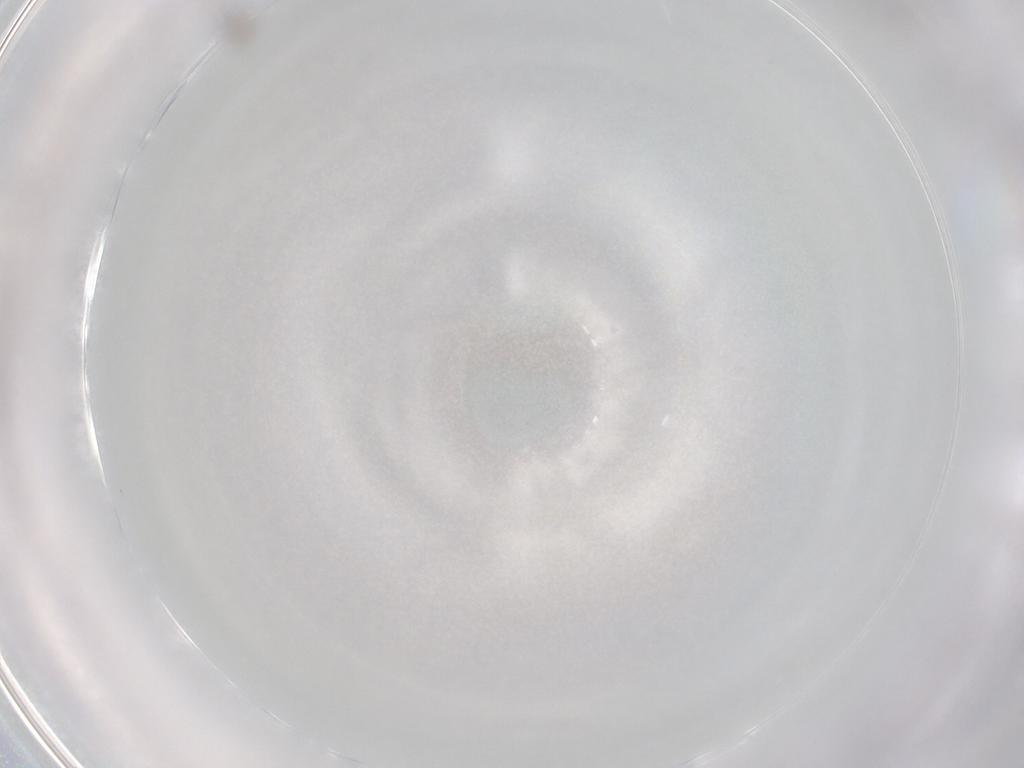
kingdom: Animalia
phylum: Arthropoda
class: Insecta
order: Lepidoptera
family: Geometridae
